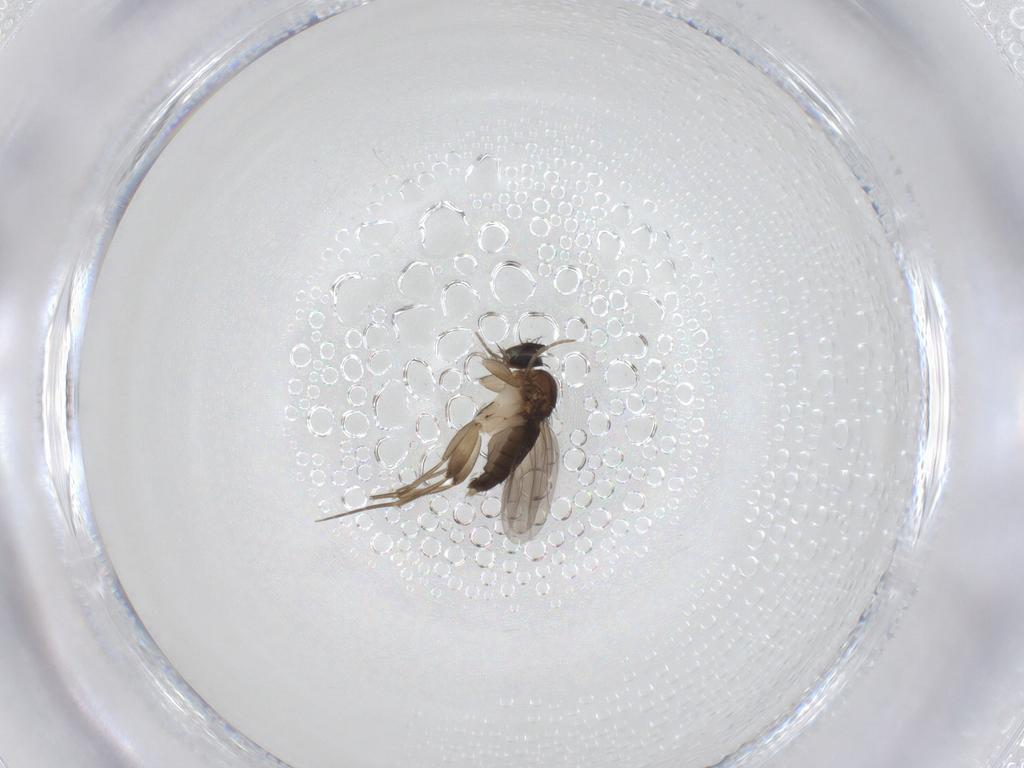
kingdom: Animalia
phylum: Arthropoda
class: Insecta
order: Diptera
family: Phoridae
